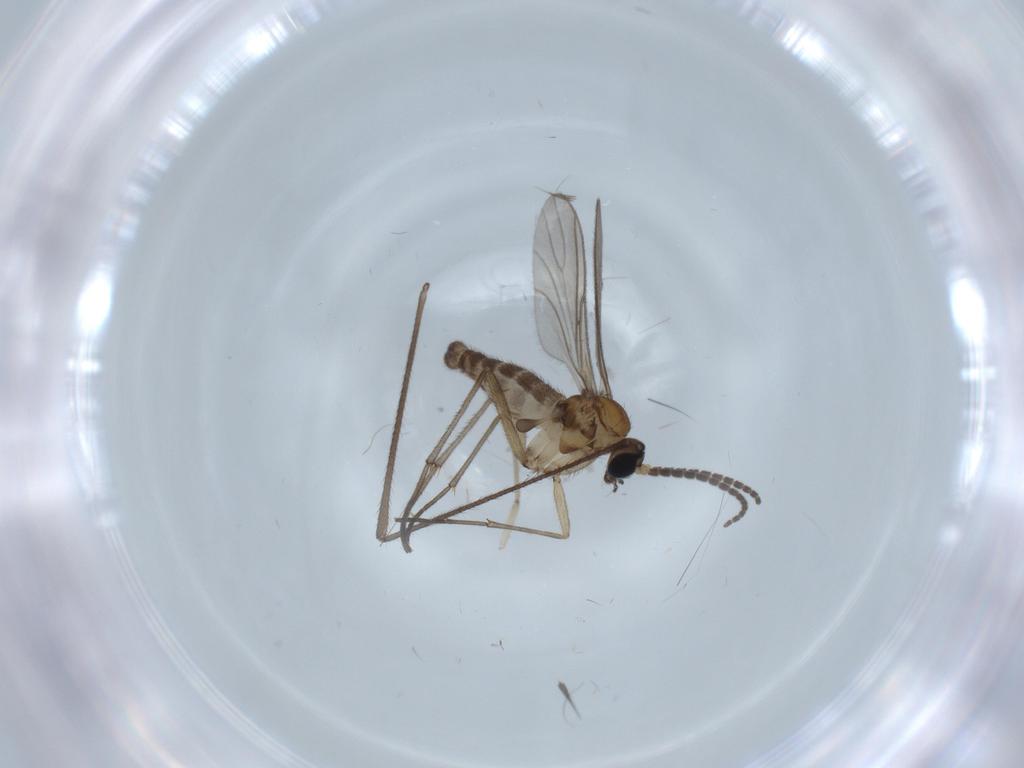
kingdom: Animalia
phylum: Arthropoda
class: Insecta
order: Diptera
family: Sciaridae
